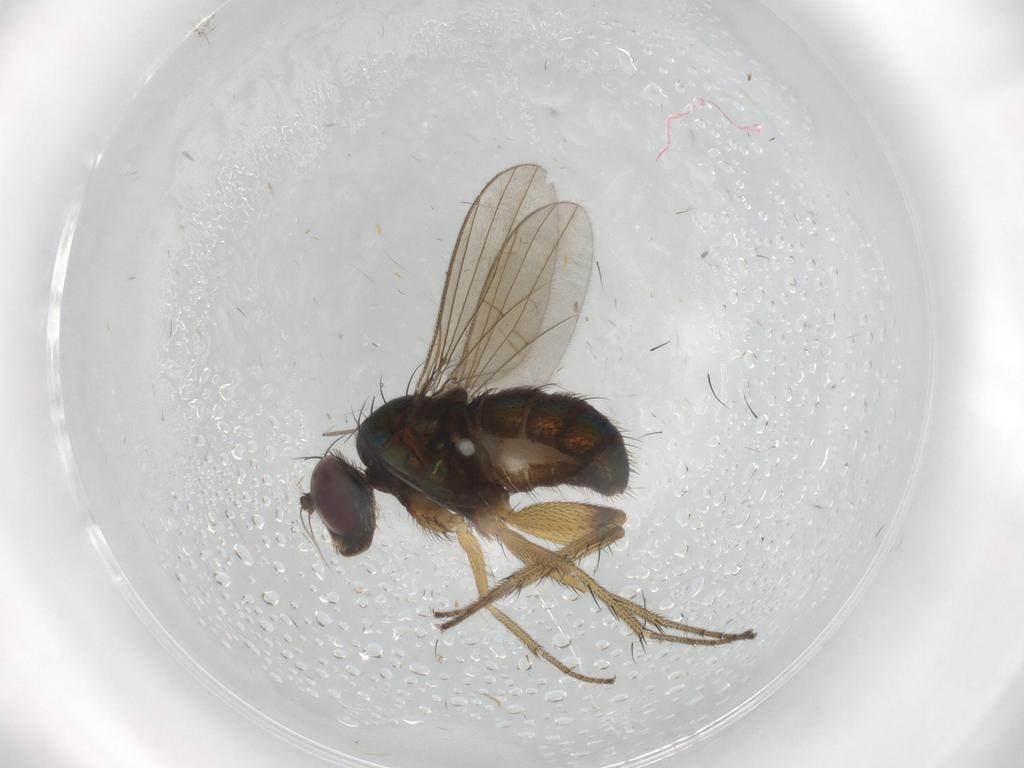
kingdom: Animalia
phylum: Arthropoda
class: Insecta
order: Diptera
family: Dolichopodidae
